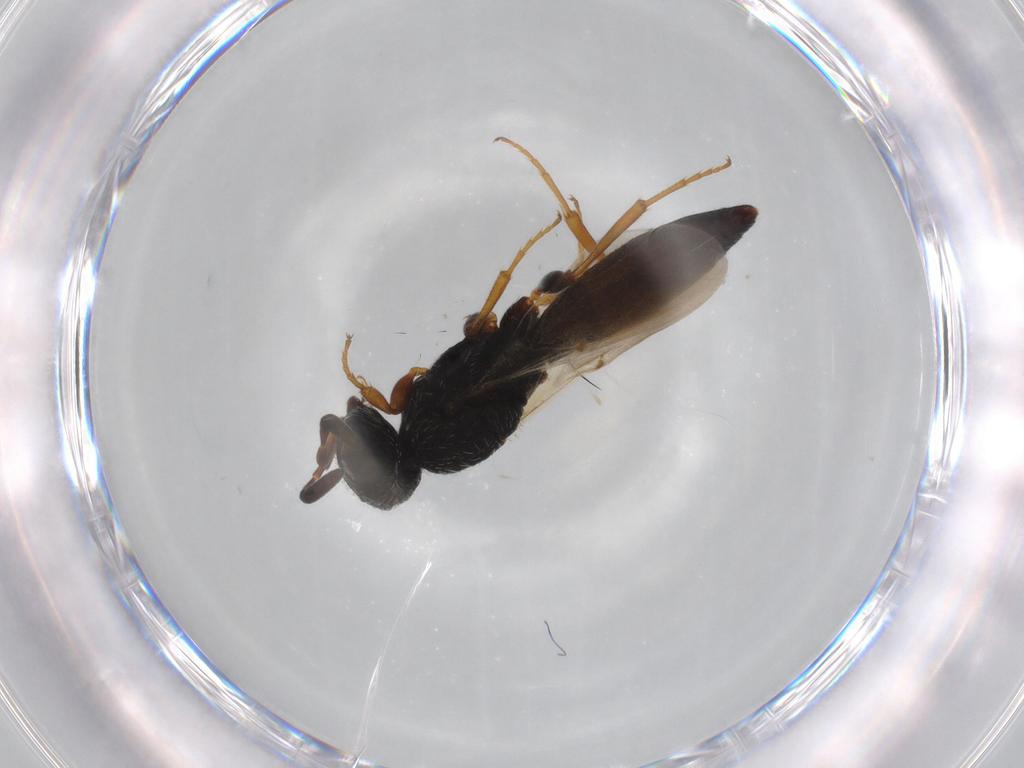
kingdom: Animalia
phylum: Arthropoda
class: Insecta
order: Hymenoptera
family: Scelionidae
